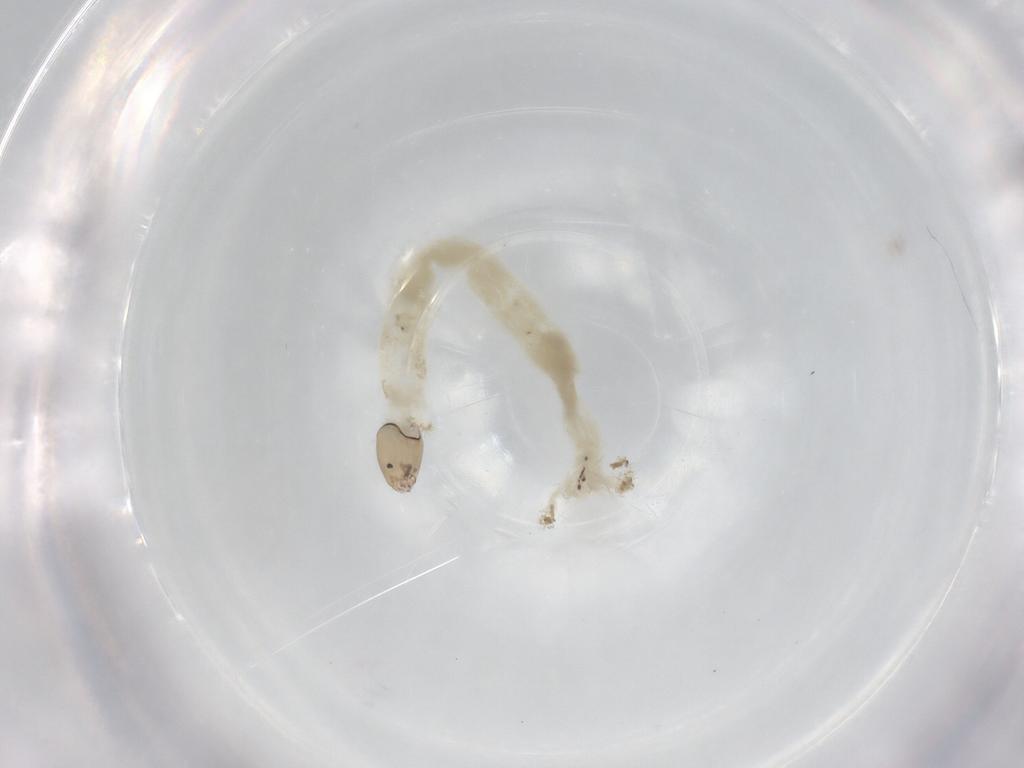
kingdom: Animalia
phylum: Arthropoda
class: Insecta
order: Diptera
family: Chironomidae
